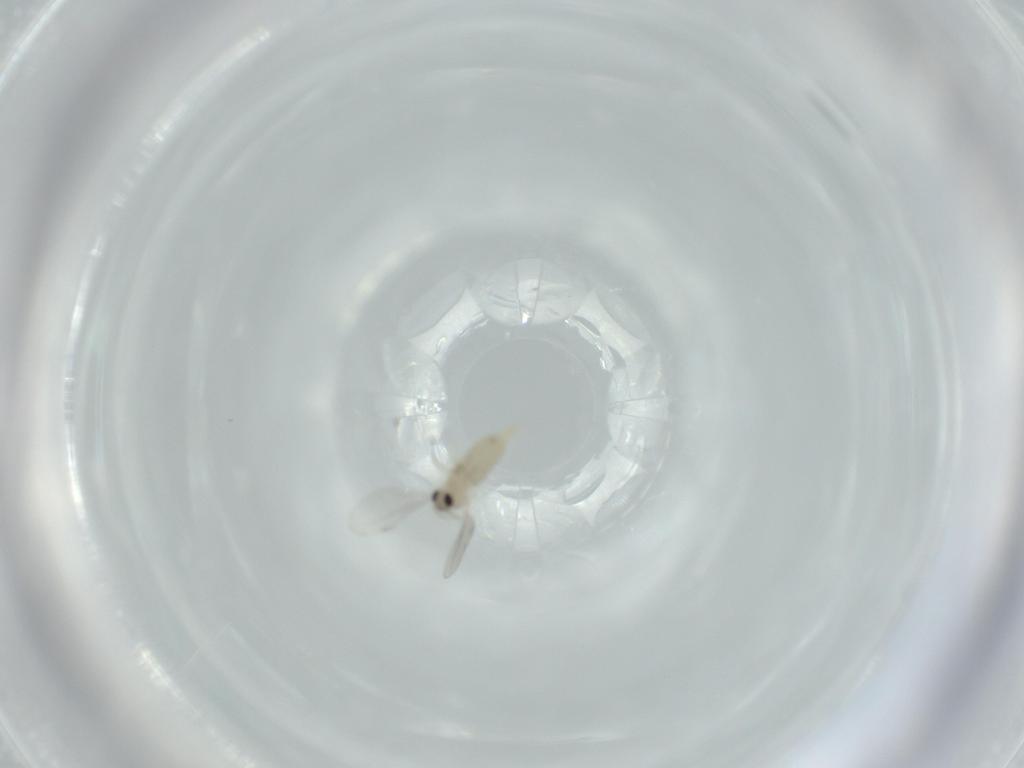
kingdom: Animalia
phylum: Arthropoda
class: Insecta
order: Diptera
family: Cecidomyiidae
